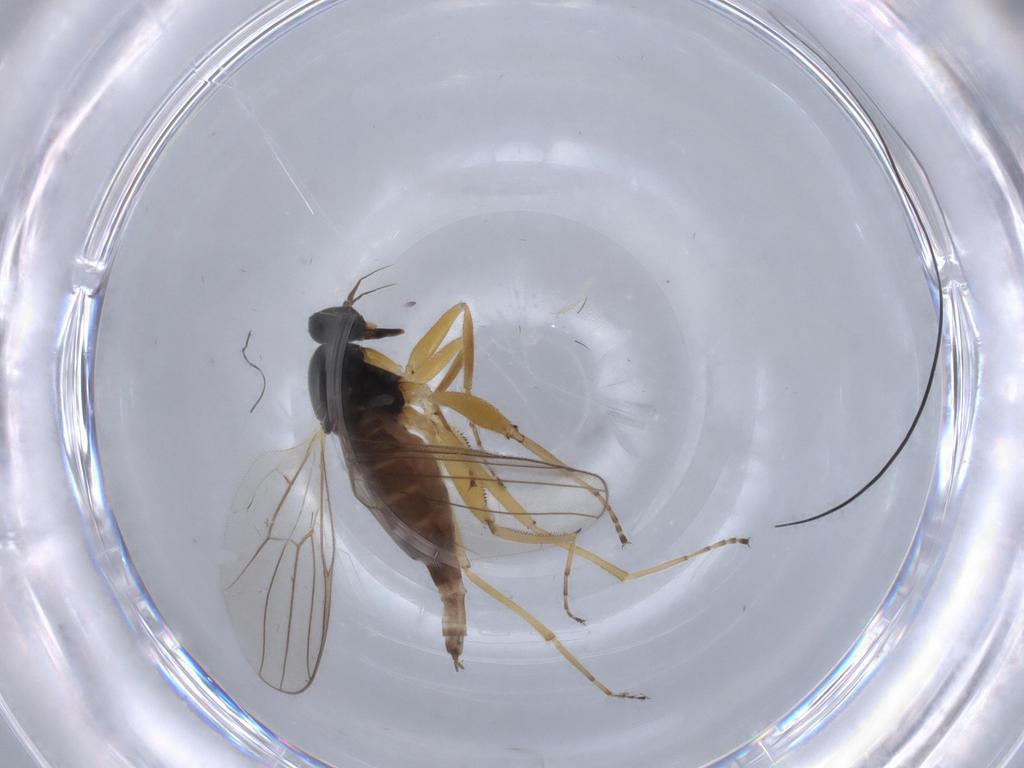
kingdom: Animalia
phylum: Arthropoda
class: Insecta
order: Diptera
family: Hybotidae
